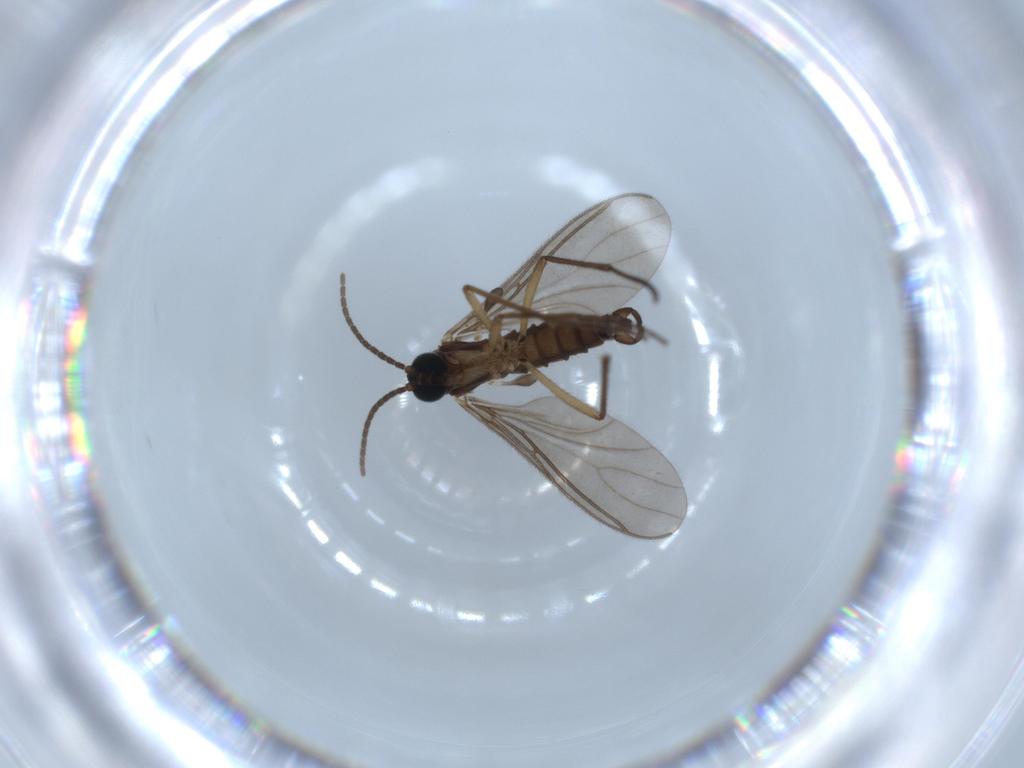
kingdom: Animalia
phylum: Arthropoda
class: Insecta
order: Diptera
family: Sciaridae
